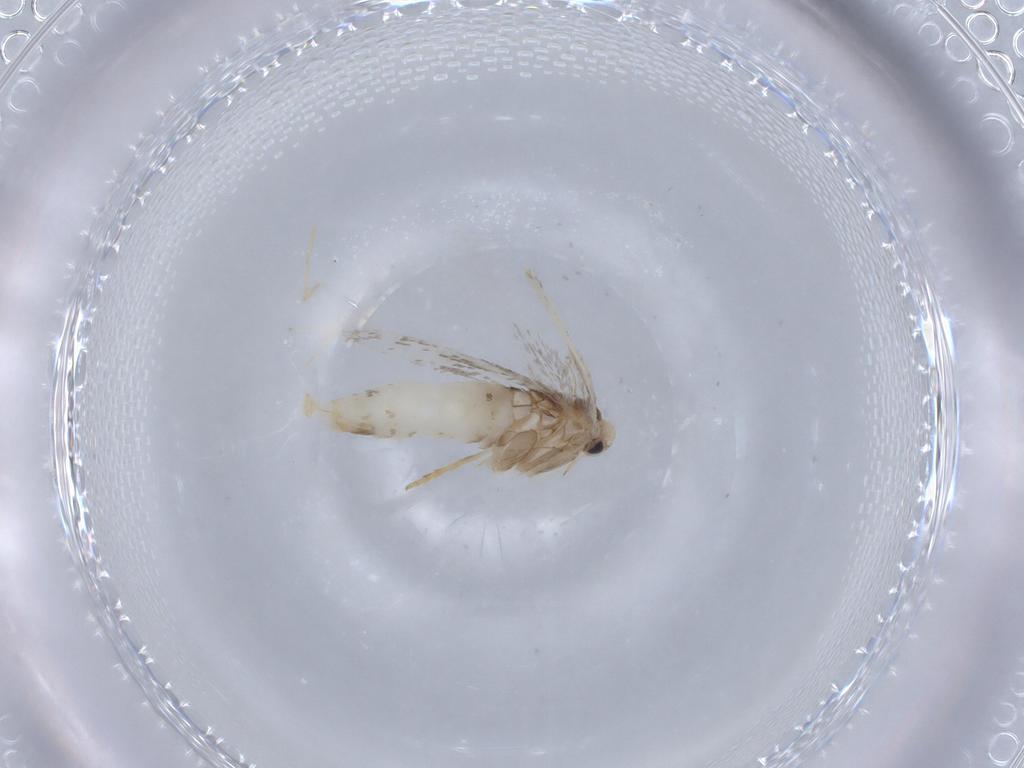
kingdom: Animalia
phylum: Arthropoda
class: Insecta
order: Lepidoptera
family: Gracillariidae
